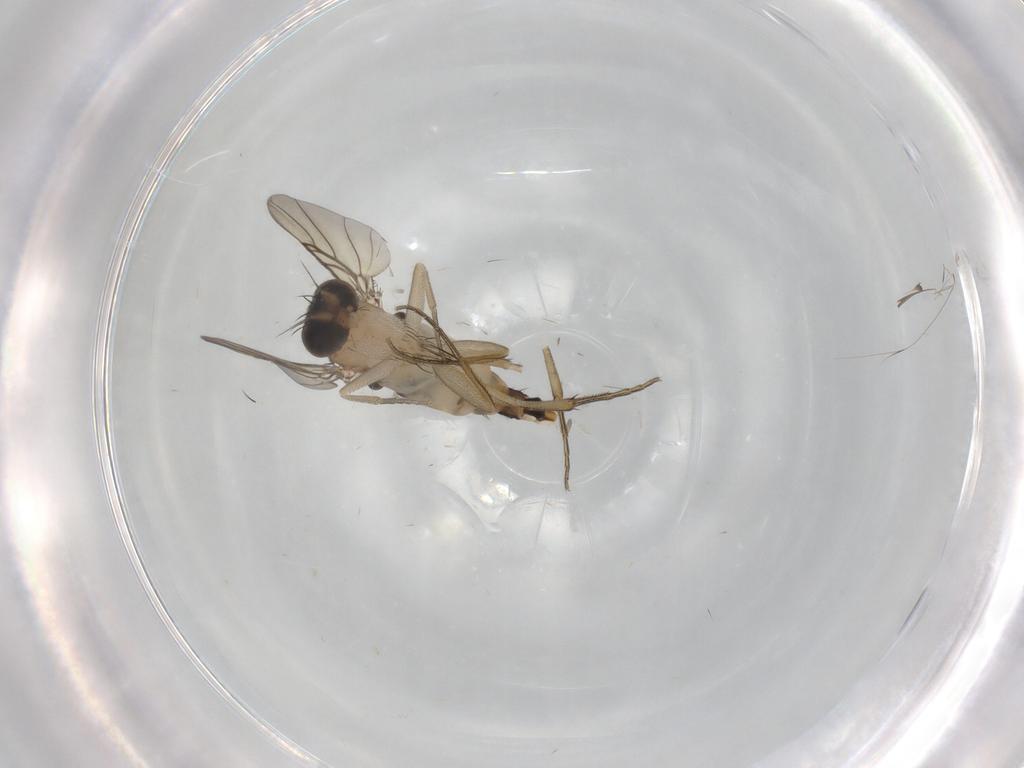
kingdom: Animalia
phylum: Arthropoda
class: Insecta
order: Diptera
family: Phoridae
